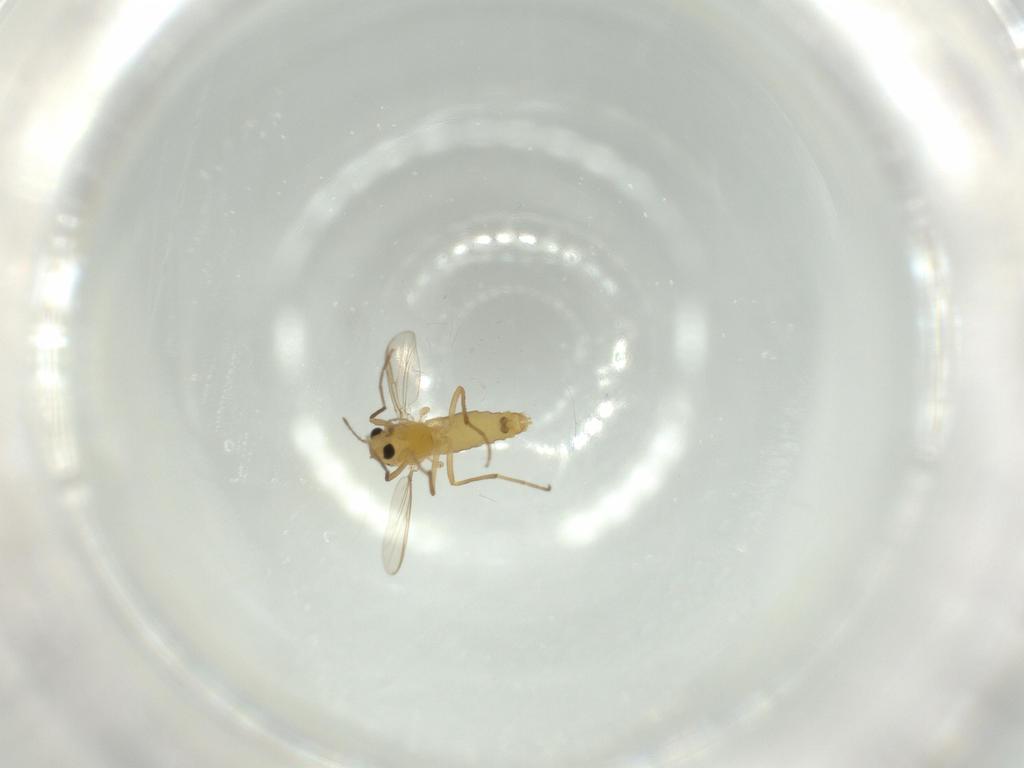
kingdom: Animalia
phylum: Arthropoda
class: Insecta
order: Diptera
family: Chironomidae
